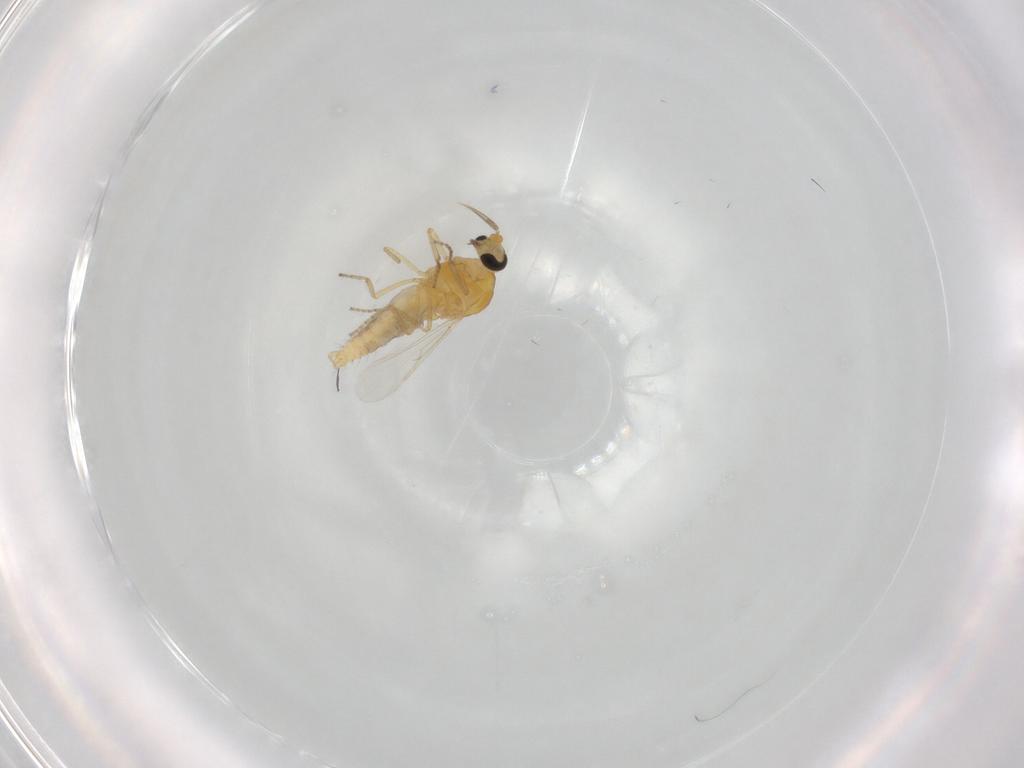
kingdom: Animalia
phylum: Arthropoda
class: Insecta
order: Diptera
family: Ceratopogonidae
